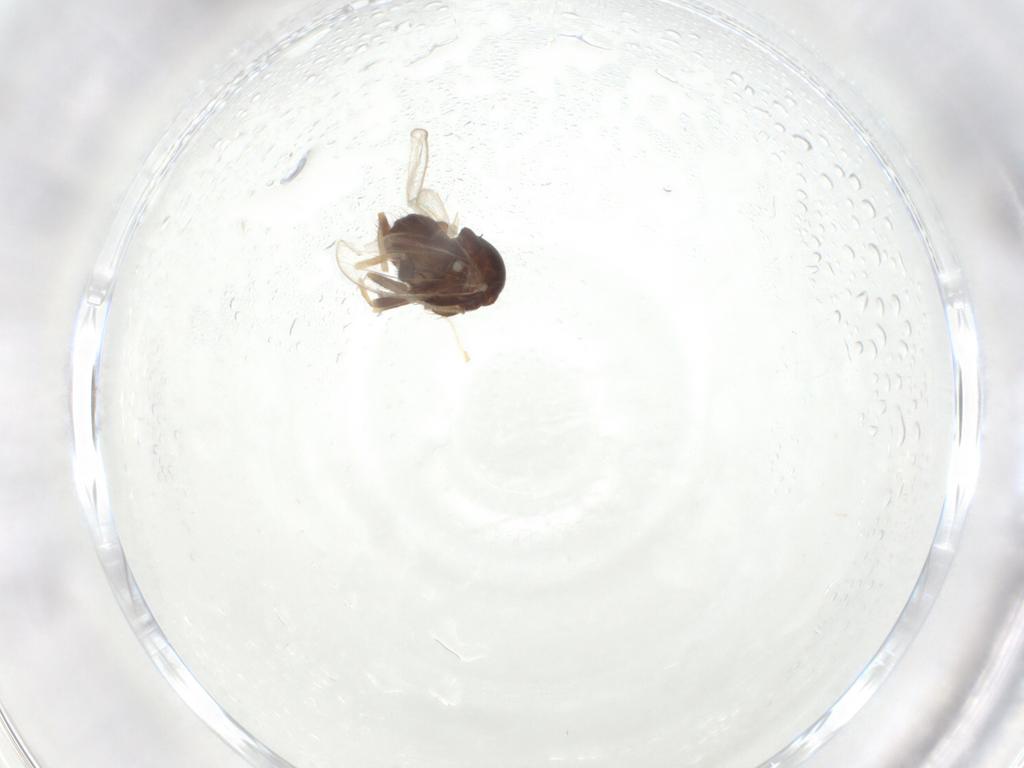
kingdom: Animalia
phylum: Arthropoda
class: Insecta
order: Diptera
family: Milichiidae
